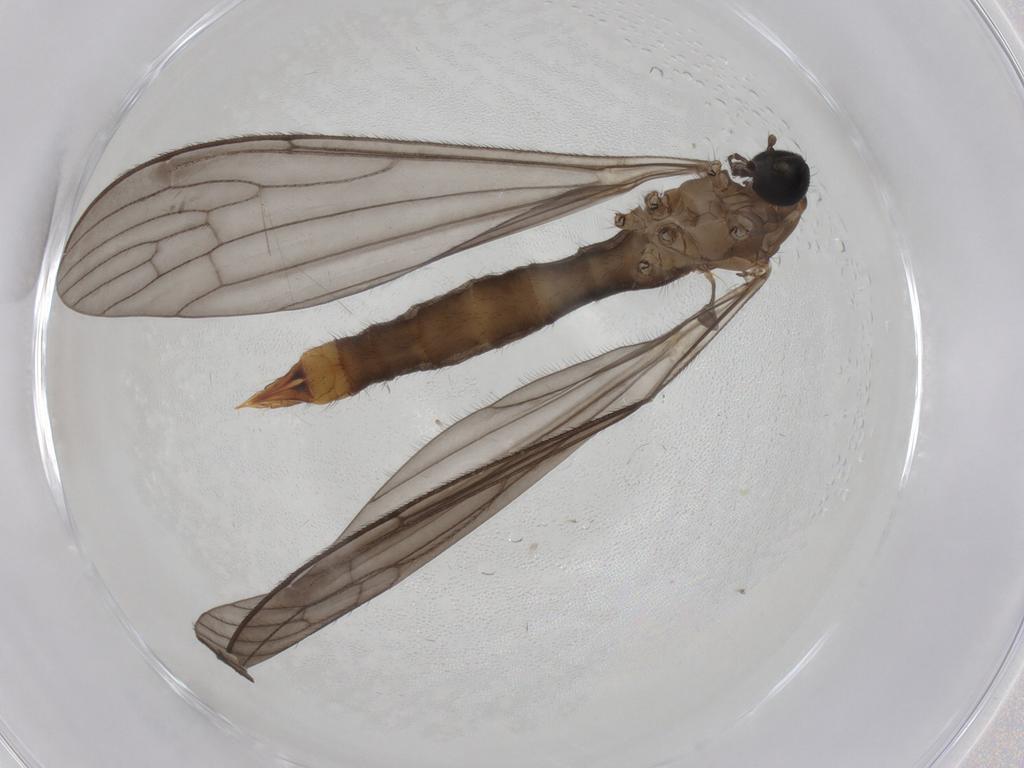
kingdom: Animalia
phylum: Arthropoda
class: Insecta
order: Diptera
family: Limoniidae
